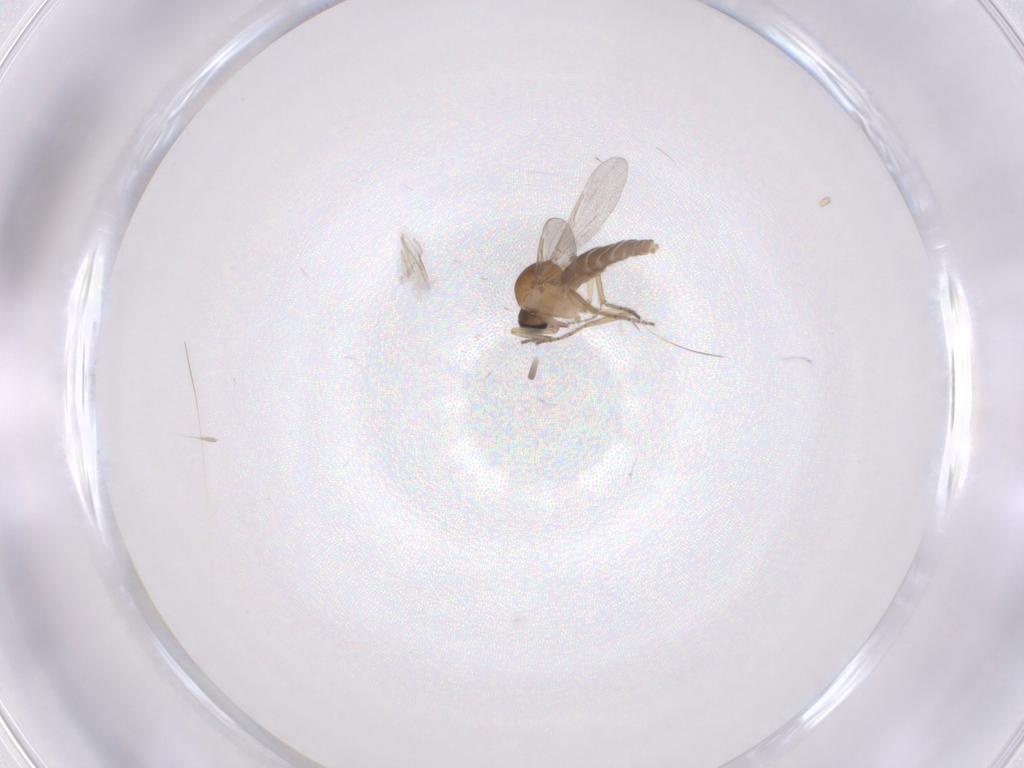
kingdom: Animalia
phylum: Arthropoda
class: Insecta
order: Diptera
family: Ceratopogonidae
